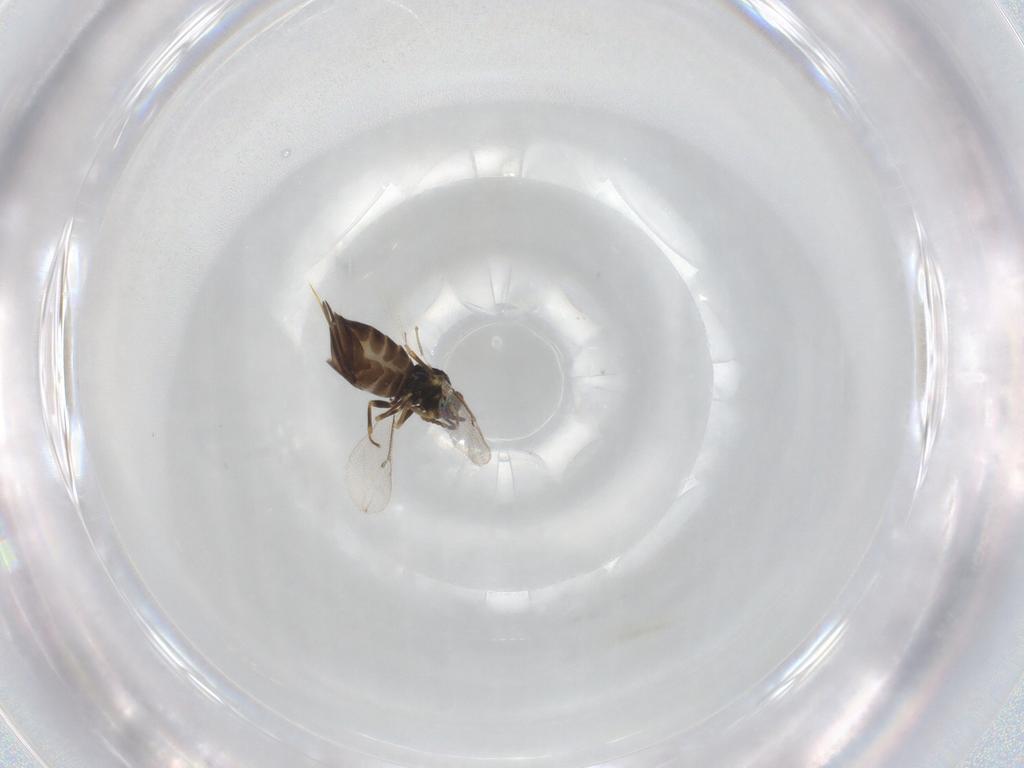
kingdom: Animalia
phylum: Arthropoda
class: Insecta
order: Hymenoptera
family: Eulophidae
